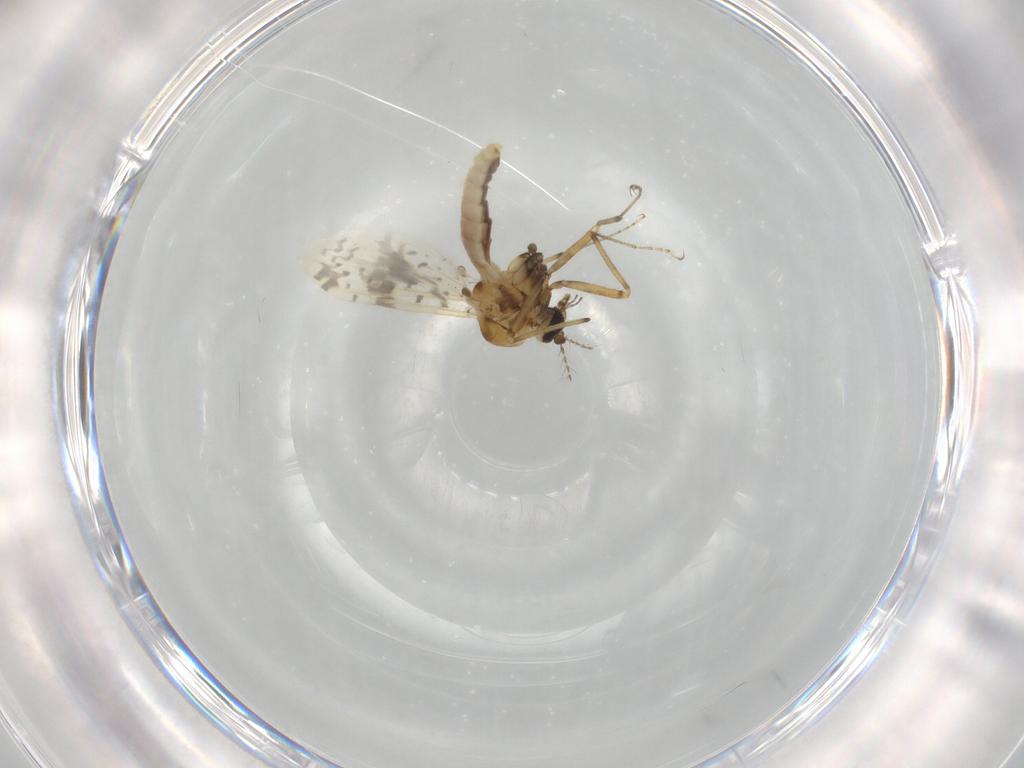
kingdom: Animalia
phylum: Arthropoda
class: Insecta
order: Diptera
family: Ceratopogonidae
